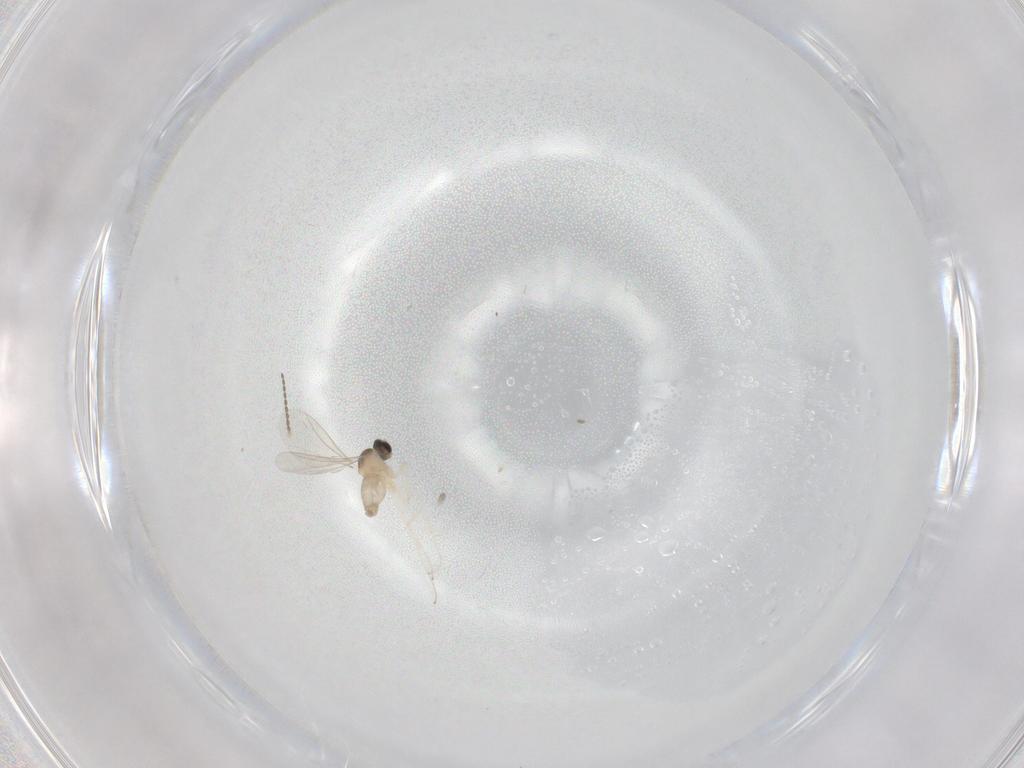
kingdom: Animalia
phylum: Arthropoda
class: Insecta
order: Diptera
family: Cecidomyiidae
